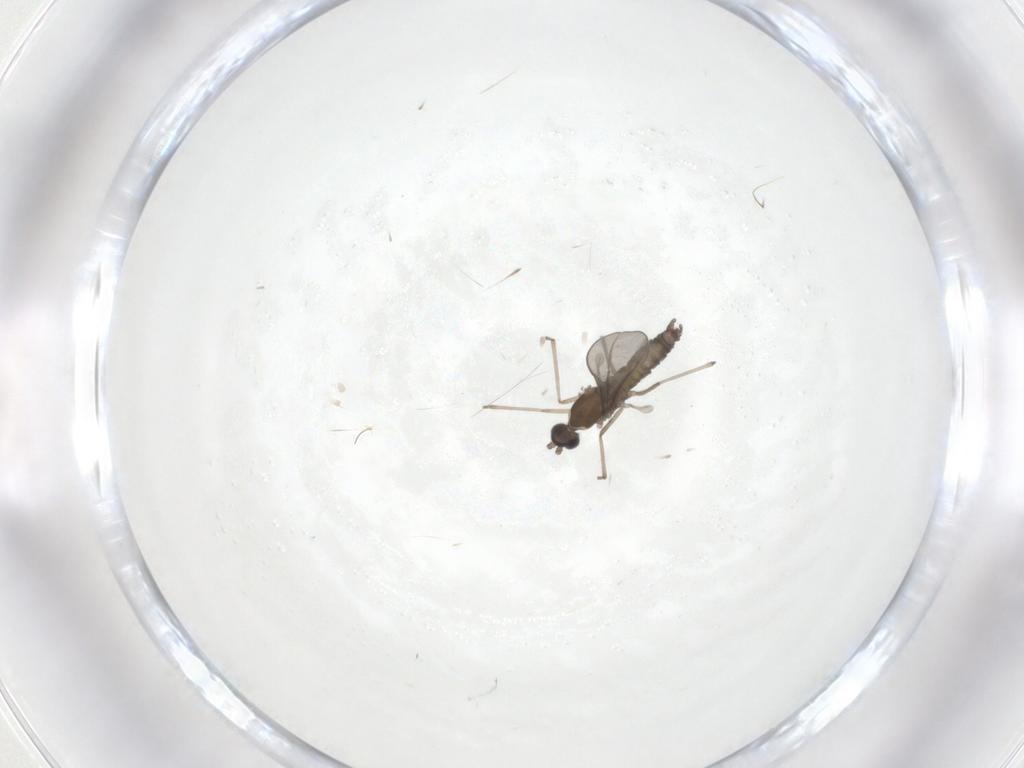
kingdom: Animalia
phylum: Arthropoda
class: Insecta
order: Diptera
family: Cecidomyiidae
